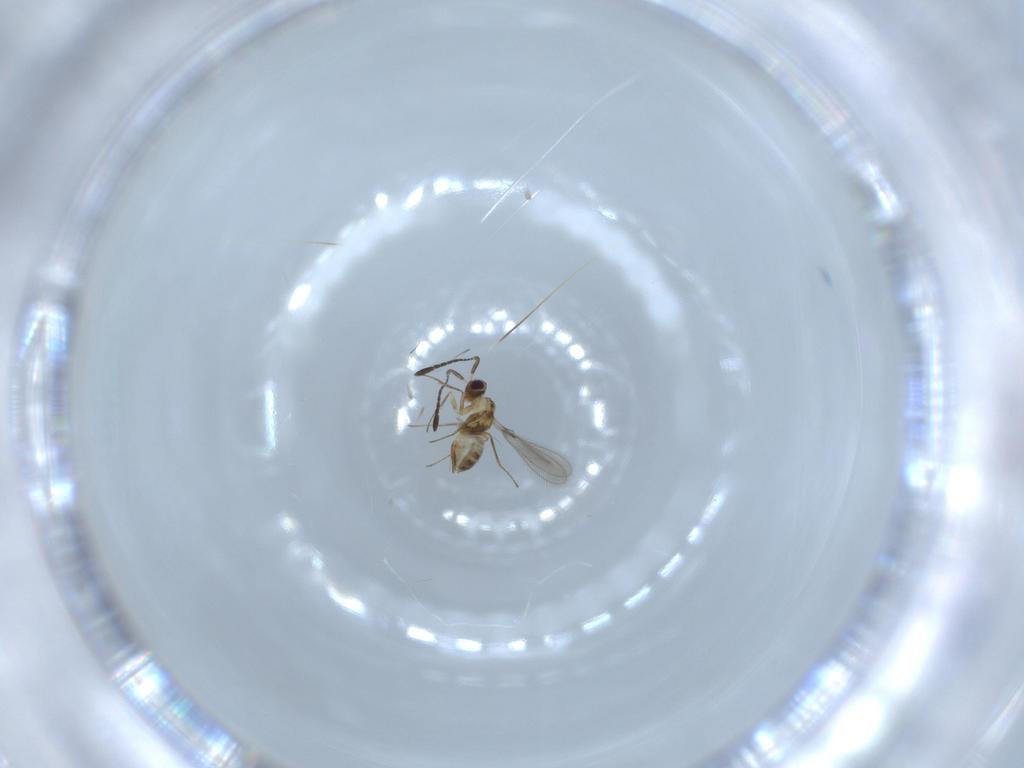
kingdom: Animalia
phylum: Arthropoda
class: Insecta
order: Hymenoptera
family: Mymaridae
